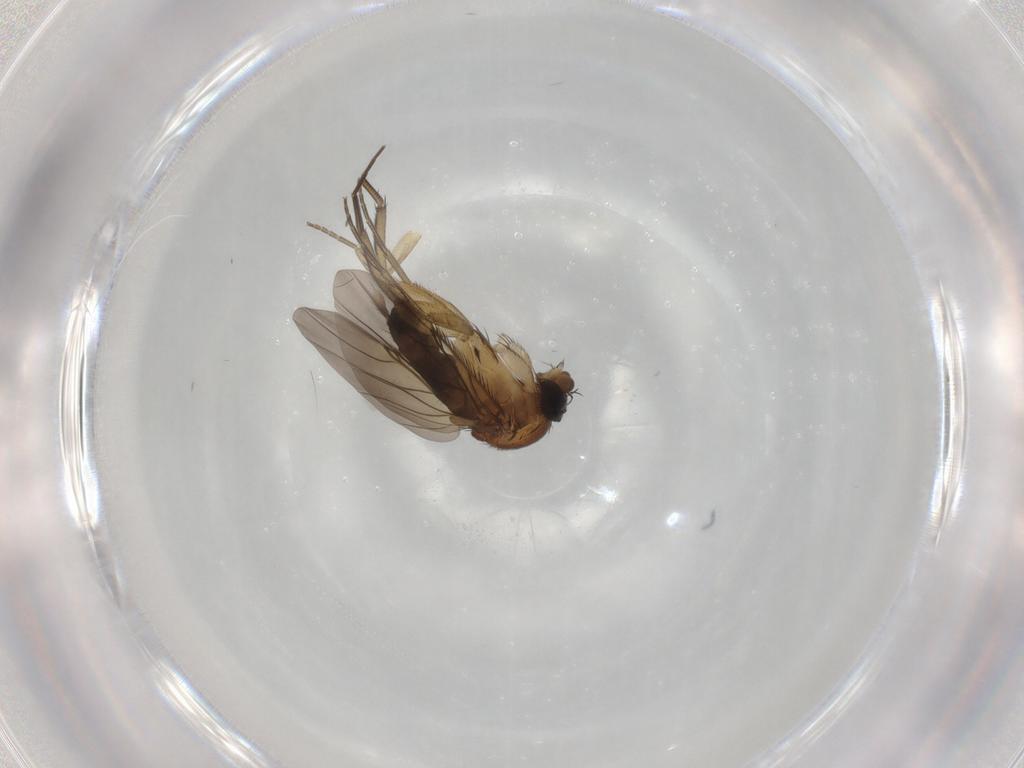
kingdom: Animalia
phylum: Arthropoda
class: Insecta
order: Diptera
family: Phoridae
